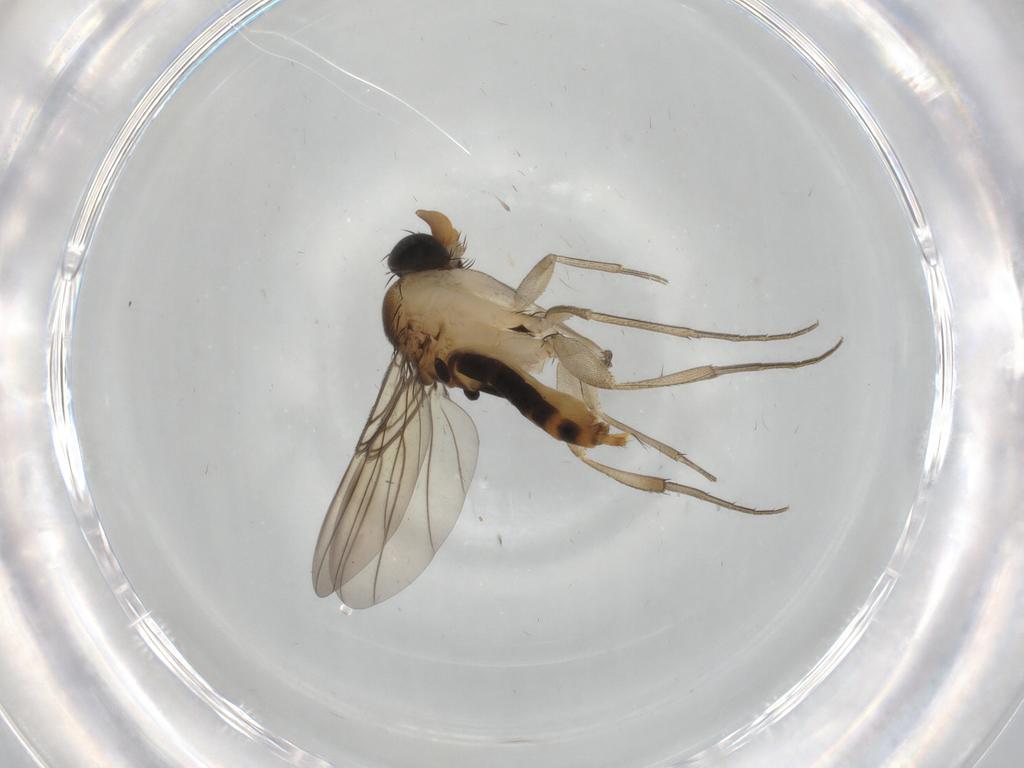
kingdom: Animalia
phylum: Arthropoda
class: Insecta
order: Diptera
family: Phoridae
